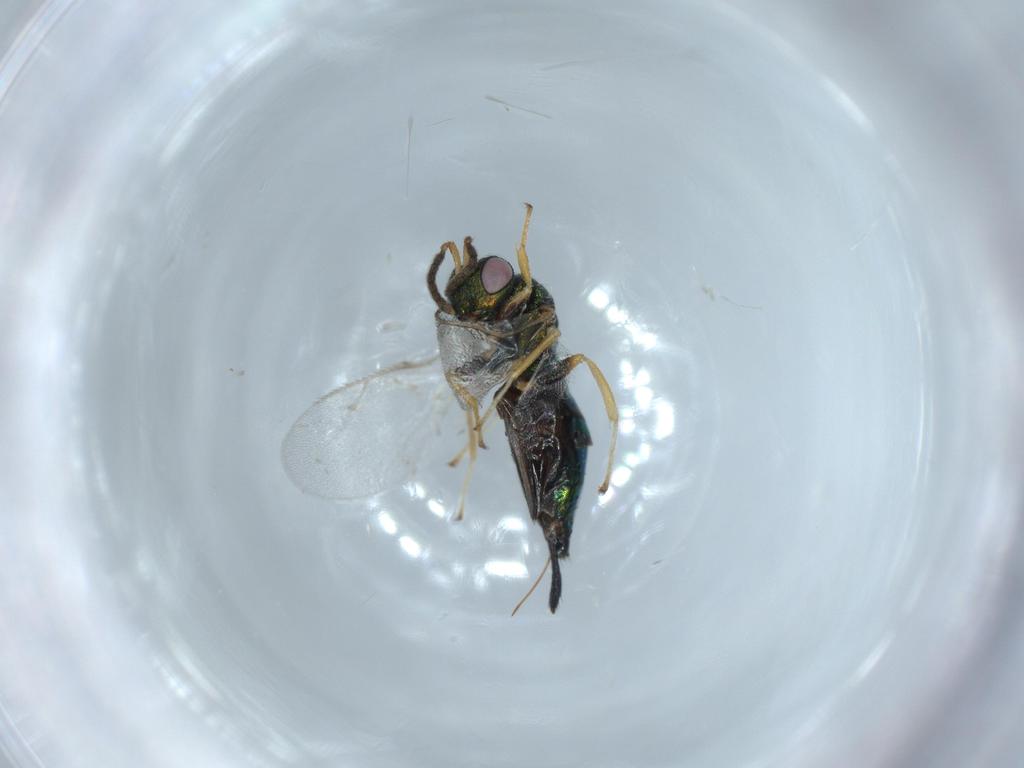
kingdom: Animalia
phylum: Arthropoda
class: Insecta
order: Hymenoptera
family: Pteromalidae
